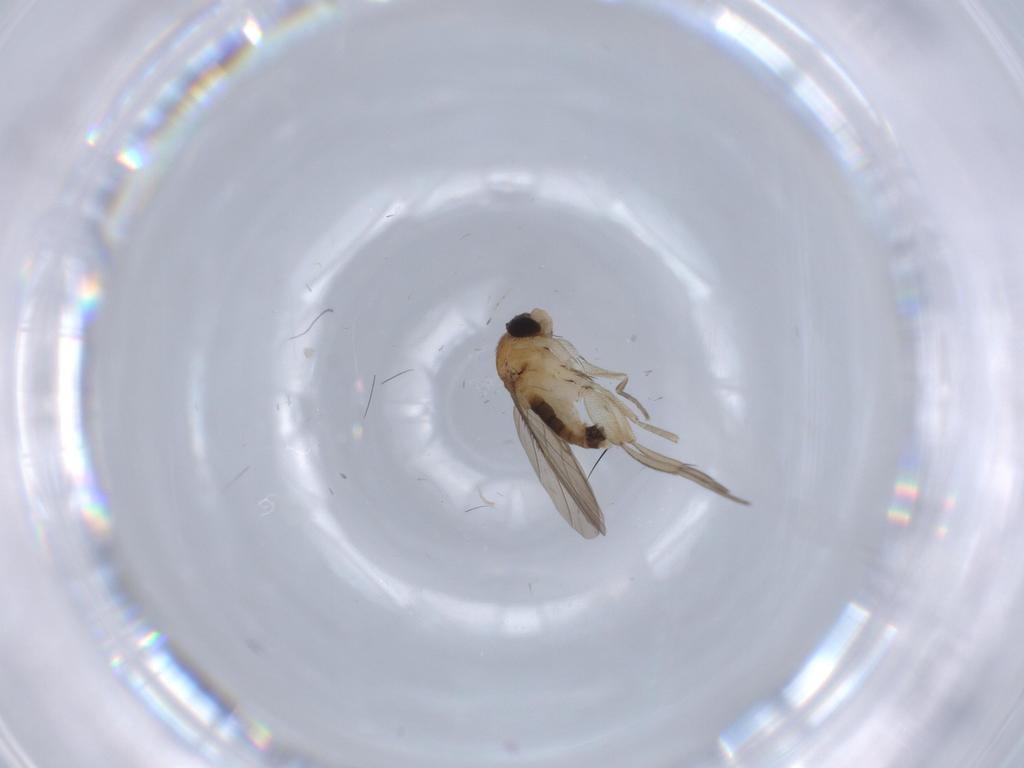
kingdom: Animalia
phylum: Arthropoda
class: Insecta
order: Diptera
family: Phoridae
